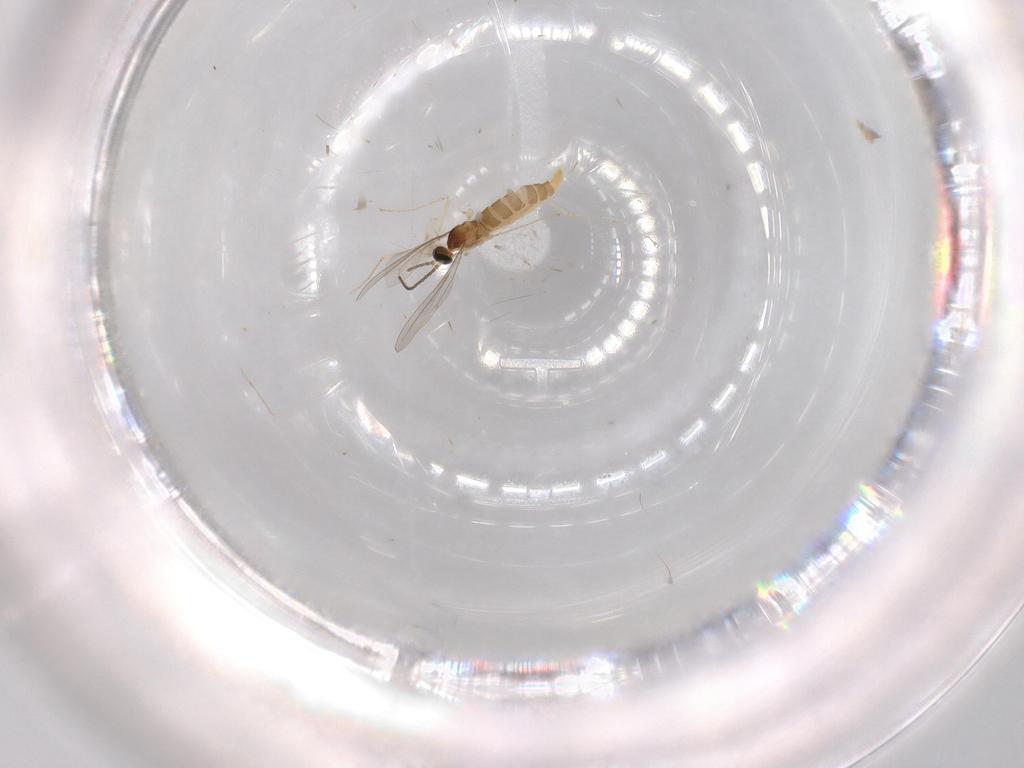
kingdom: Animalia
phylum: Arthropoda
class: Insecta
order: Diptera
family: Cecidomyiidae
